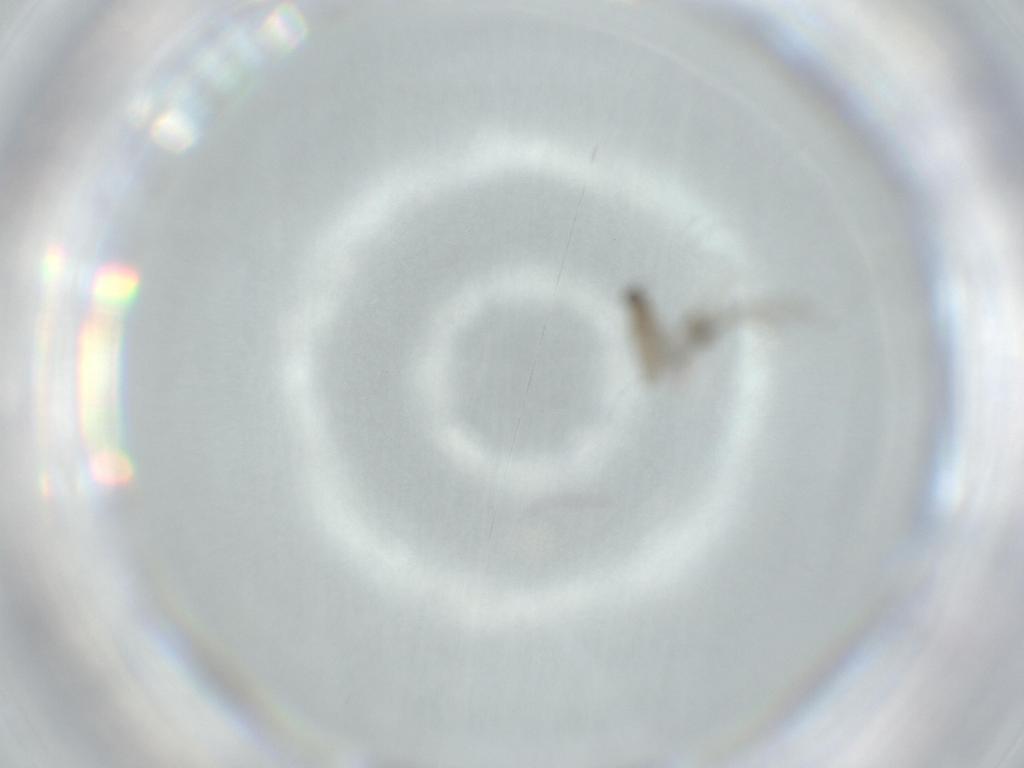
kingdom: Animalia
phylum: Arthropoda
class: Insecta
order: Diptera
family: Cecidomyiidae
